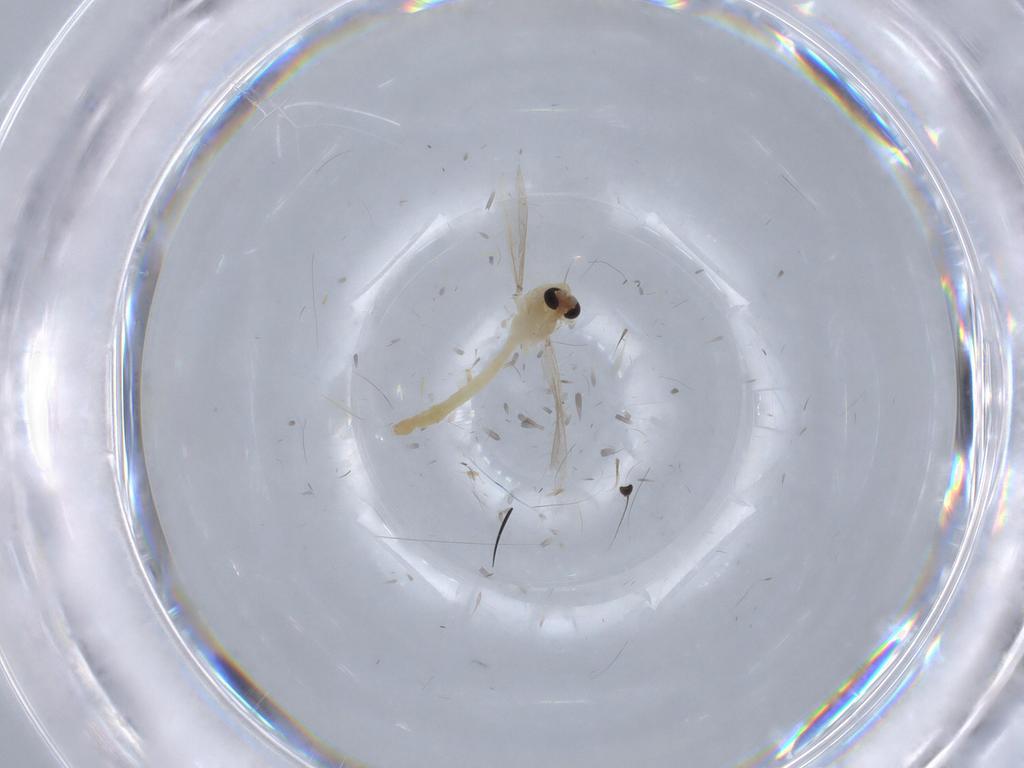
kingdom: Animalia
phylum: Arthropoda
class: Insecta
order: Diptera
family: Chironomidae
